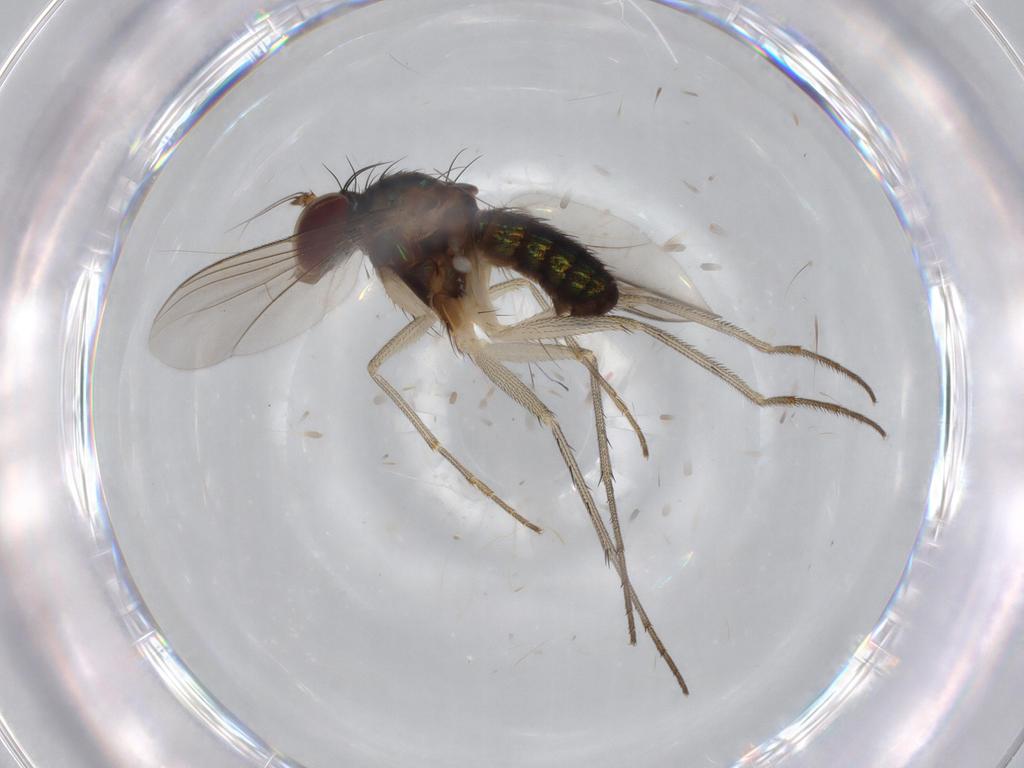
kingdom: Animalia
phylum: Arthropoda
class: Insecta
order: Diptera
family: Dolichopodidae
